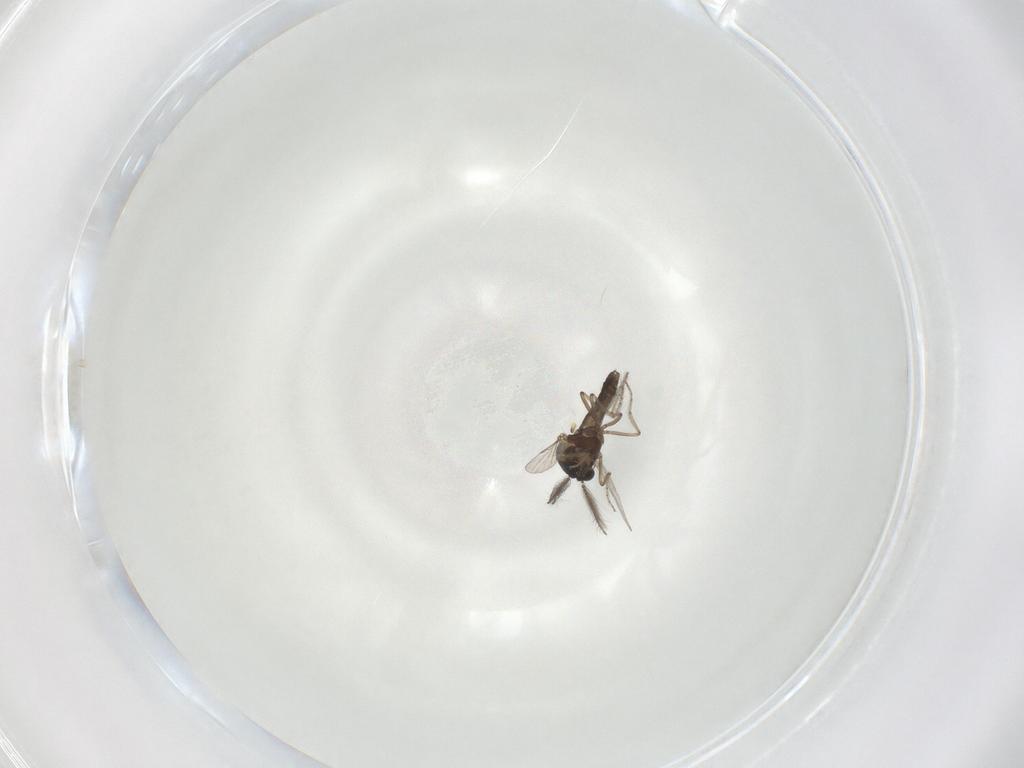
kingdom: Animalia
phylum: Arthropoda
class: Insecta
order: Diptera
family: Ceratopogonidae
